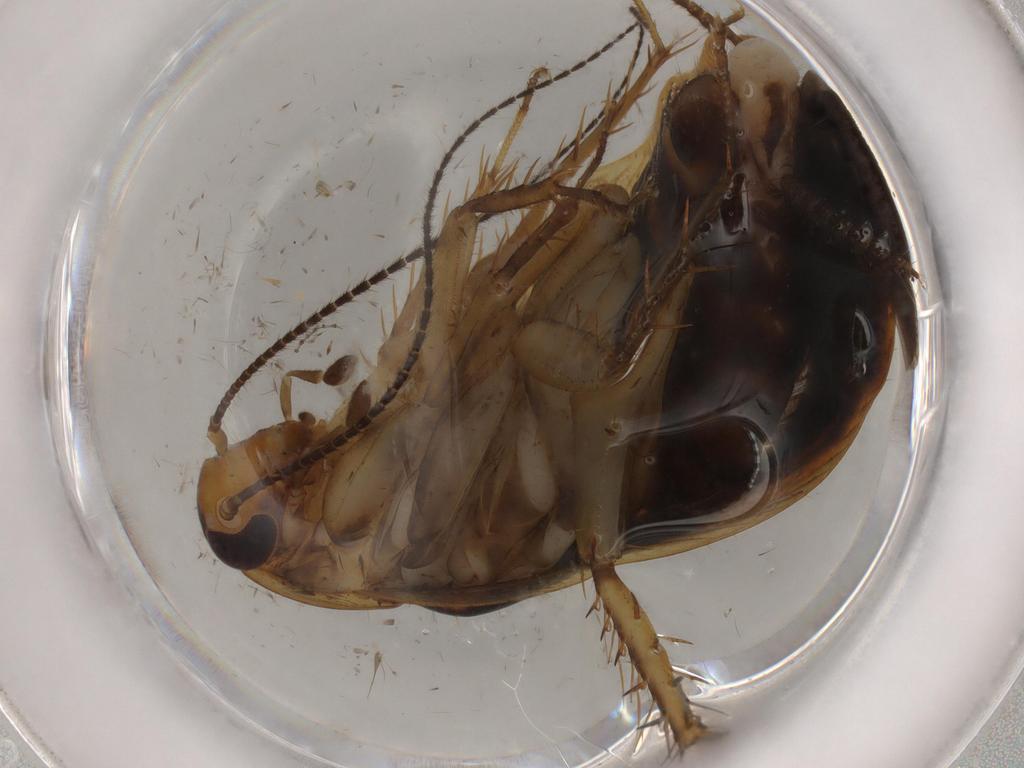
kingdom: Animalia
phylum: Arthropoda
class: Insecta
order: Blattodea
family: Ectobiidae
